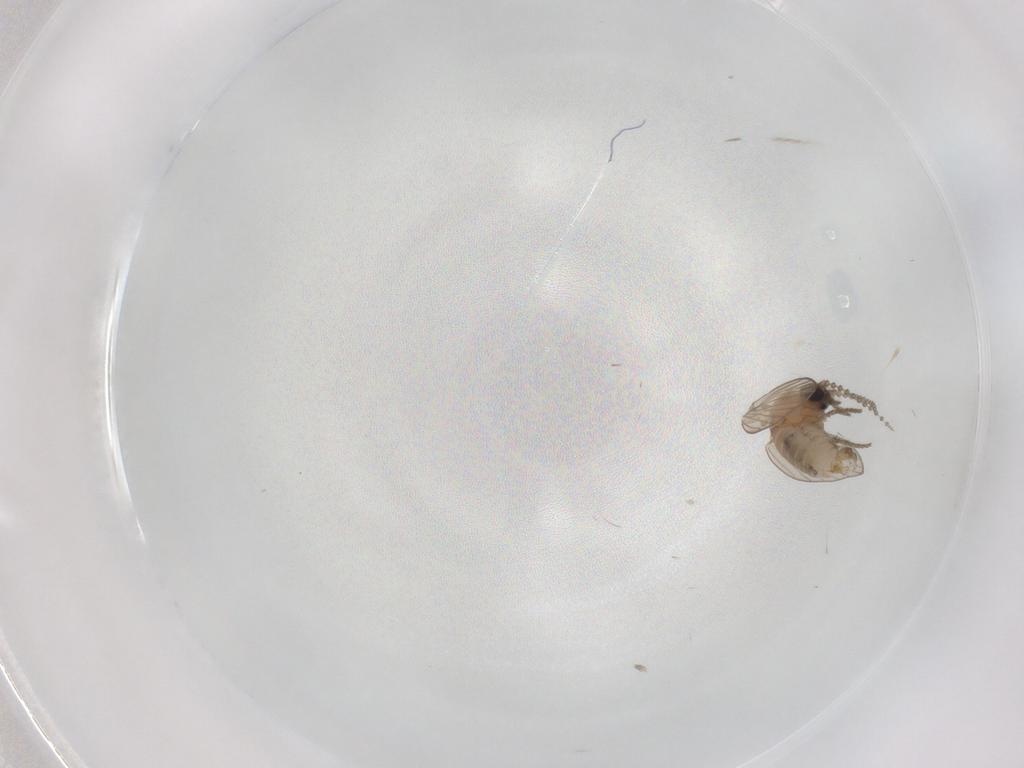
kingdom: Animalia
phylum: Arthropoda
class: Insecta
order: Diptera
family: Psychodidae
